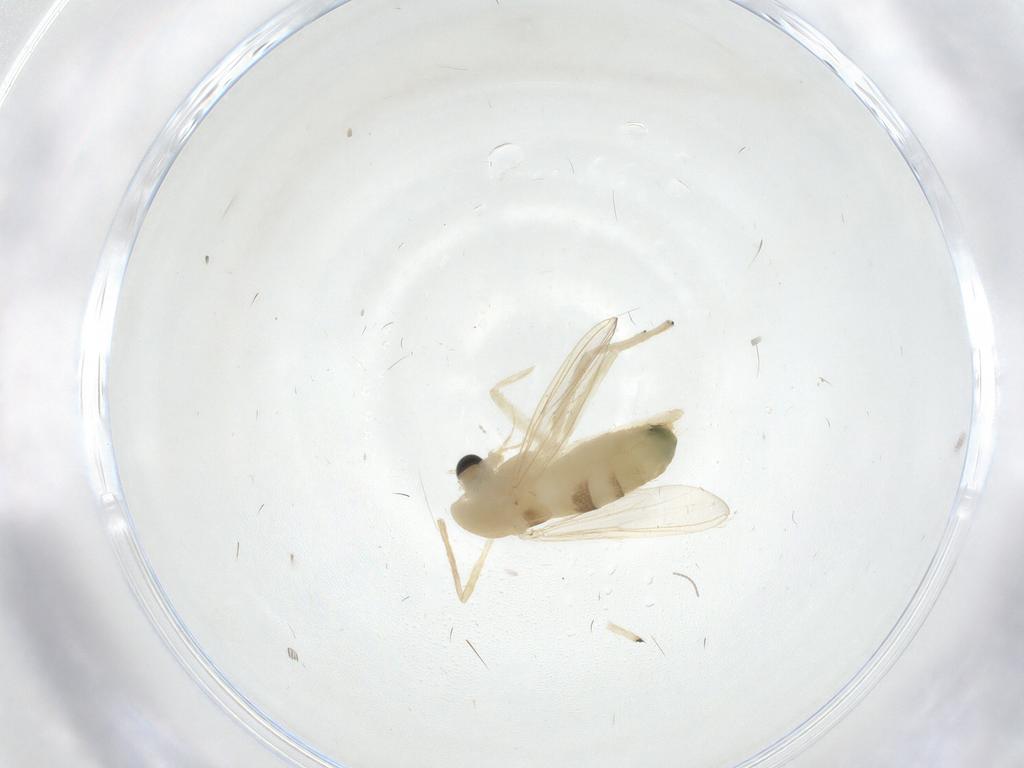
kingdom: Animalia
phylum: Arthropoda
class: Insecta
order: Diptera
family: Chironomidae
